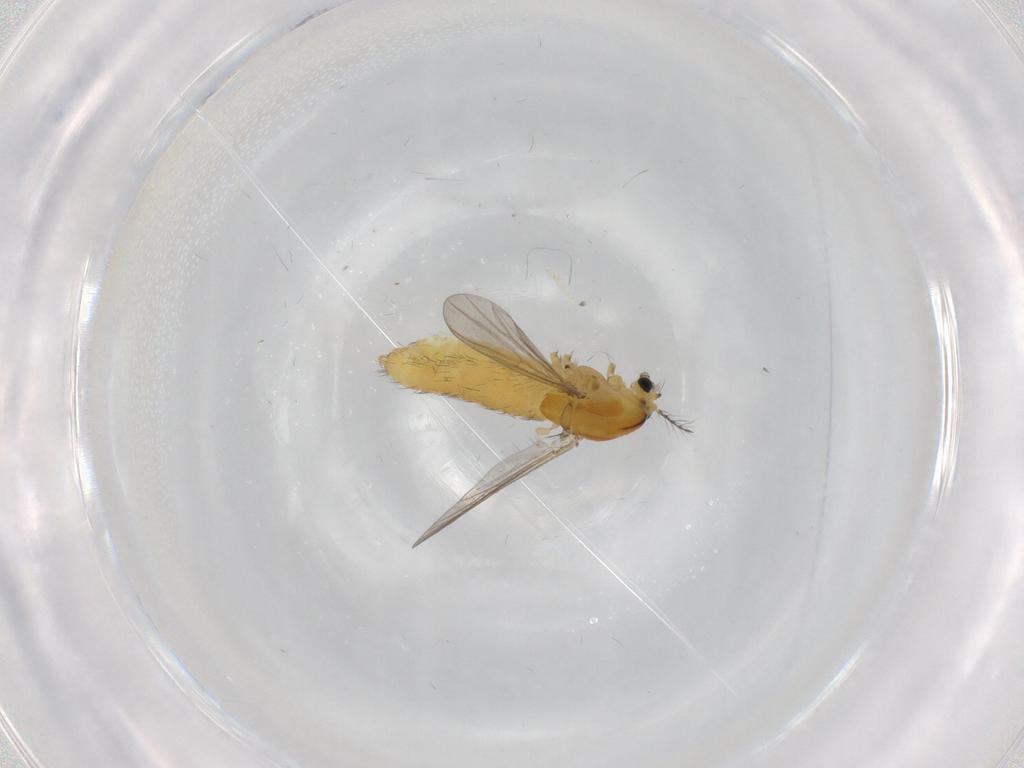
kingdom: Animalia
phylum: Arthropoda
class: Insecta
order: Diptera
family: Chironomidae
